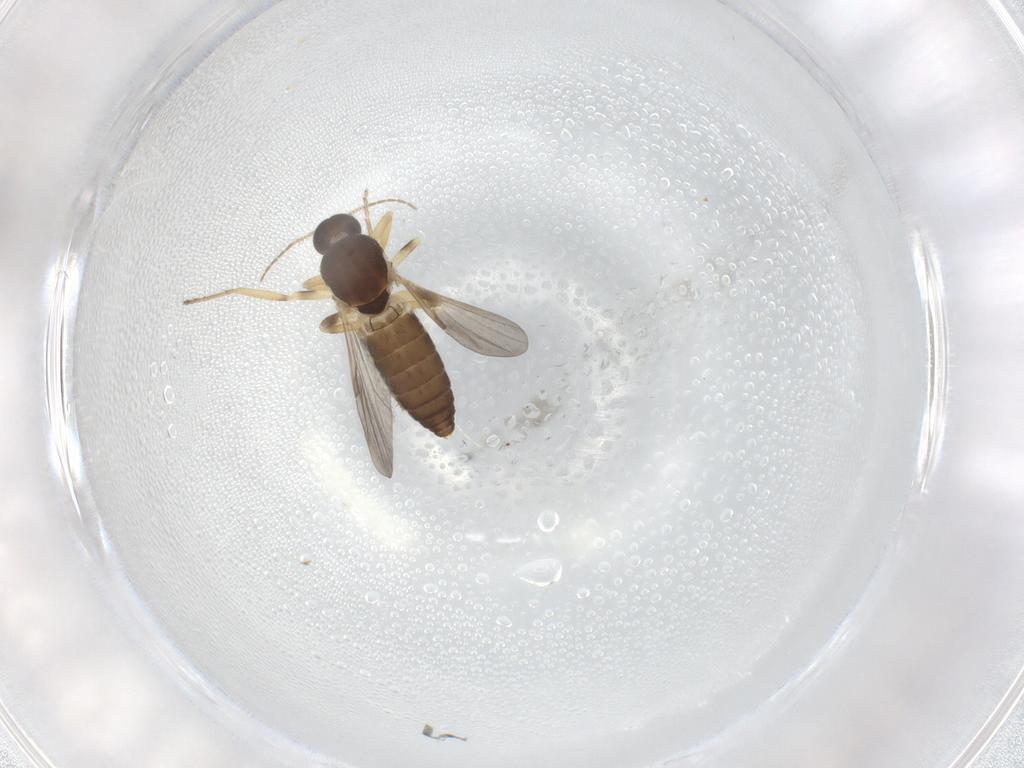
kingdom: Animalia
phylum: Arthropoda
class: Insecta
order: Diptera
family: Ceratopogonidae
